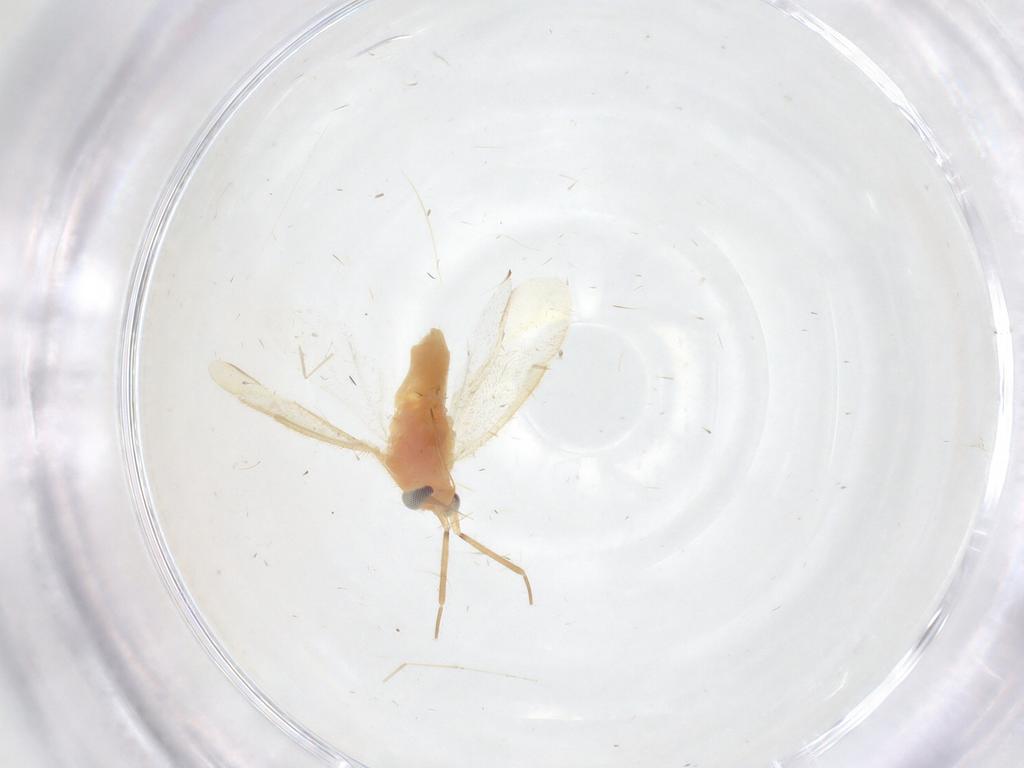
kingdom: Animalia
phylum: Arthropoda
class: Insecta
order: Hemiptera
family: Miridae
